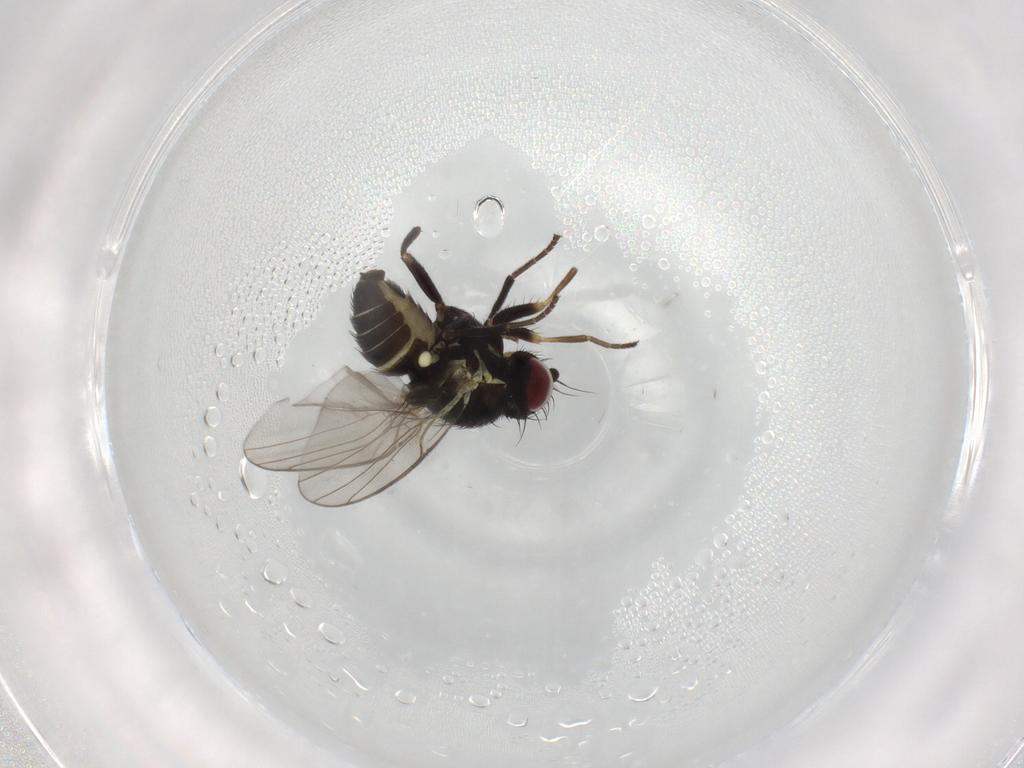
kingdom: Animalia
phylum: Arthropoda
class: Insecta
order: Diptera
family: Agromyzidae
